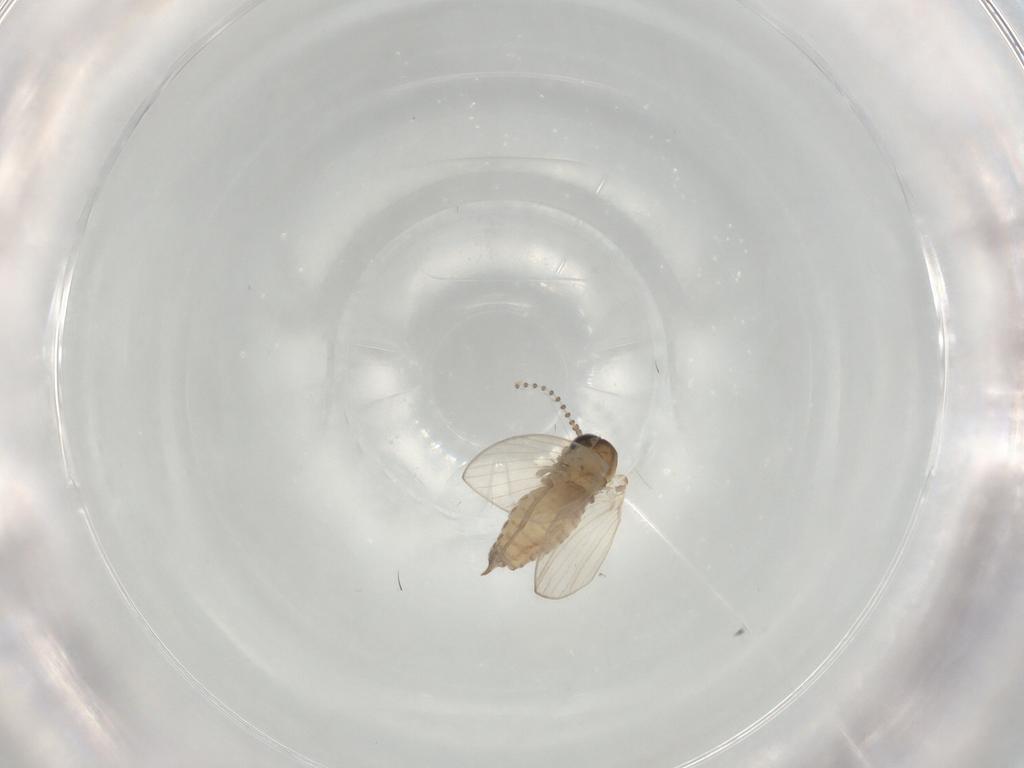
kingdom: Animalia
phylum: Arthropoda
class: Insecta
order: Diptera
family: Psychodidae
